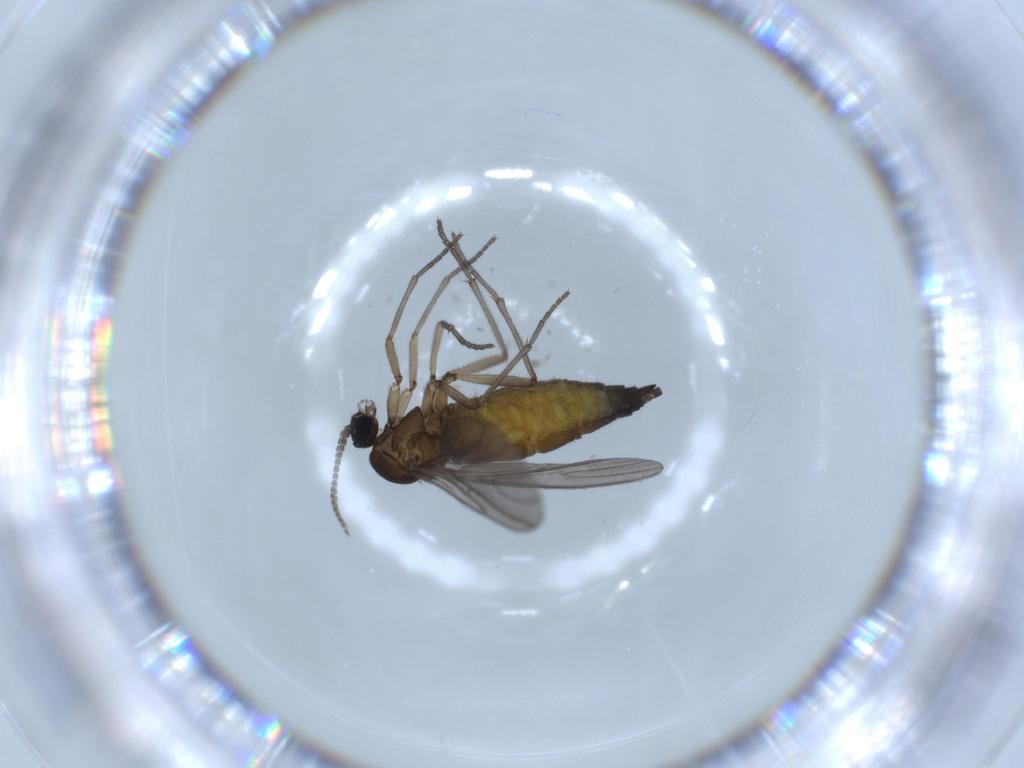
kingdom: Animalia
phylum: Arthropoda
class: Insecta
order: Diptera
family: Sciaridae
